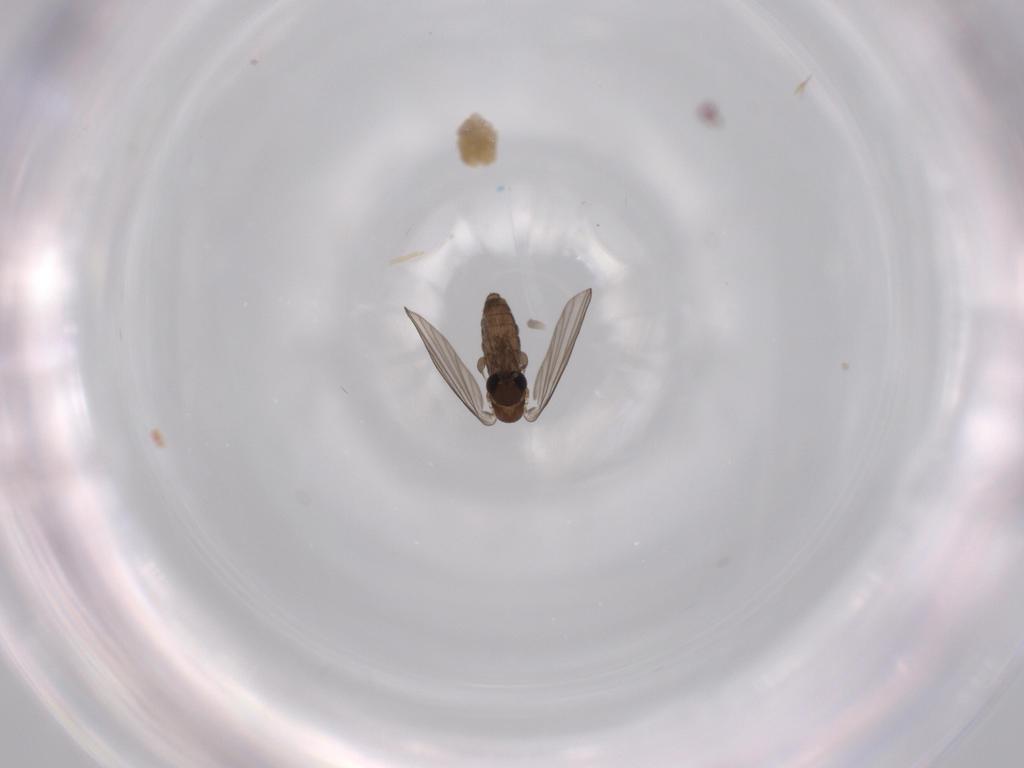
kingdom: Animalia
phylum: Arthropoda
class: Insecta
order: Diptera
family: Psychodidae
